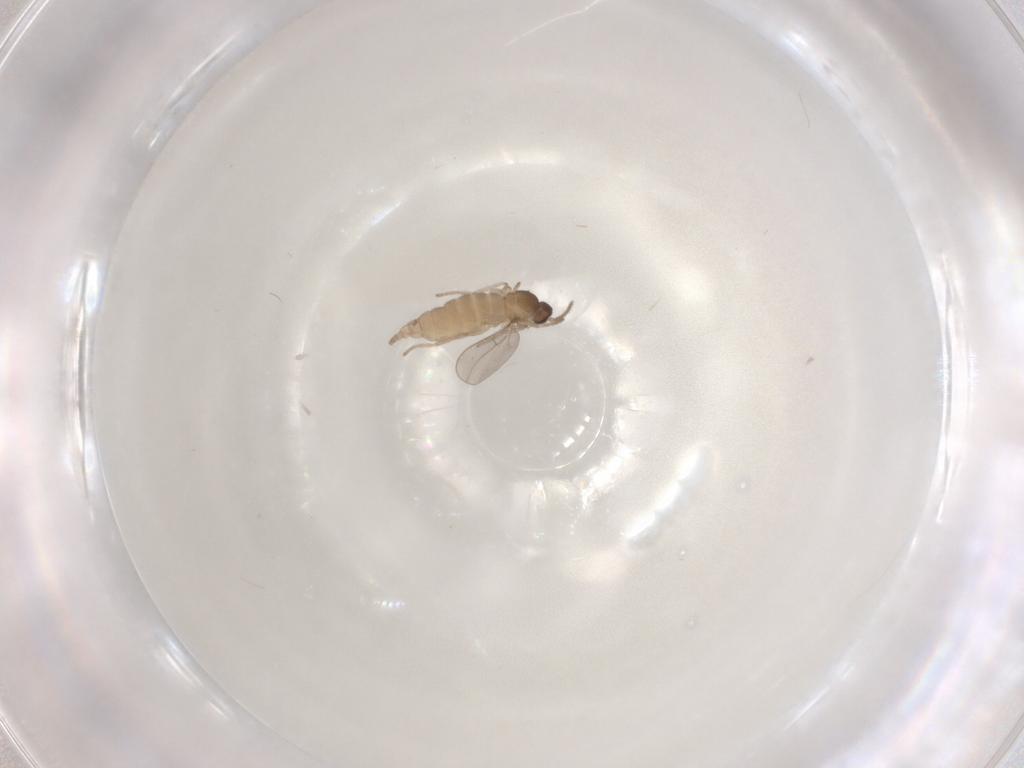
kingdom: Animalia
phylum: Arthropoda
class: Insecta
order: Diptera
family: Cecidomyiidae
